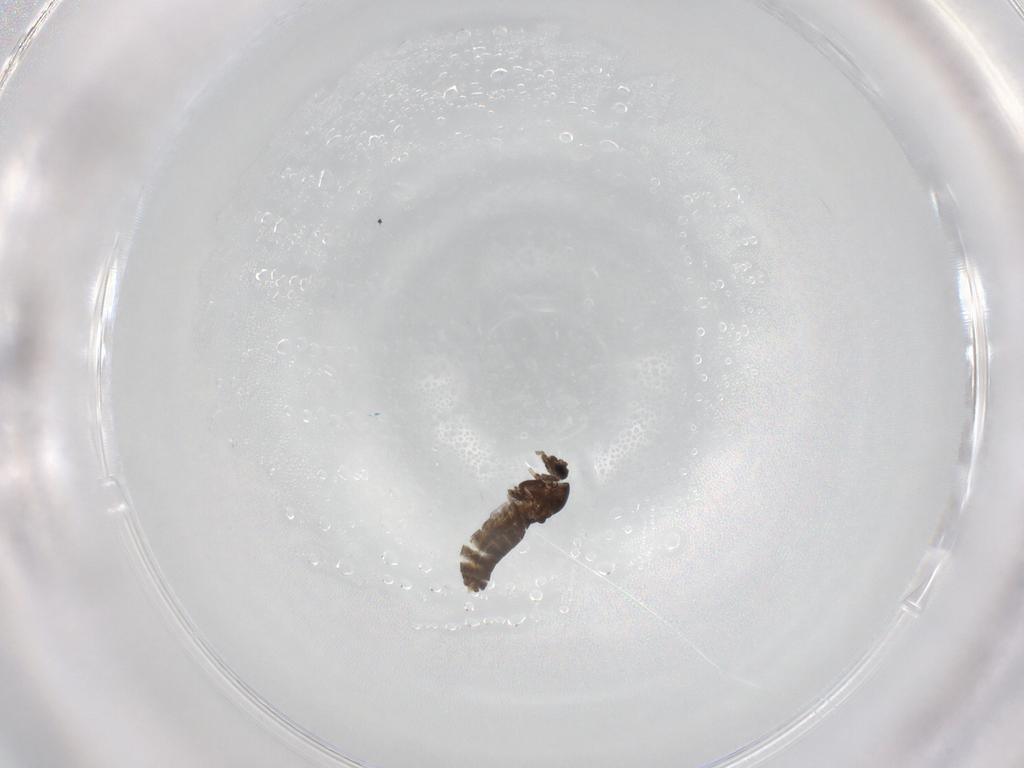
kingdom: Animalia
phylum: Arthropoda
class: Insecta
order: Diptera
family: Chironomidae
